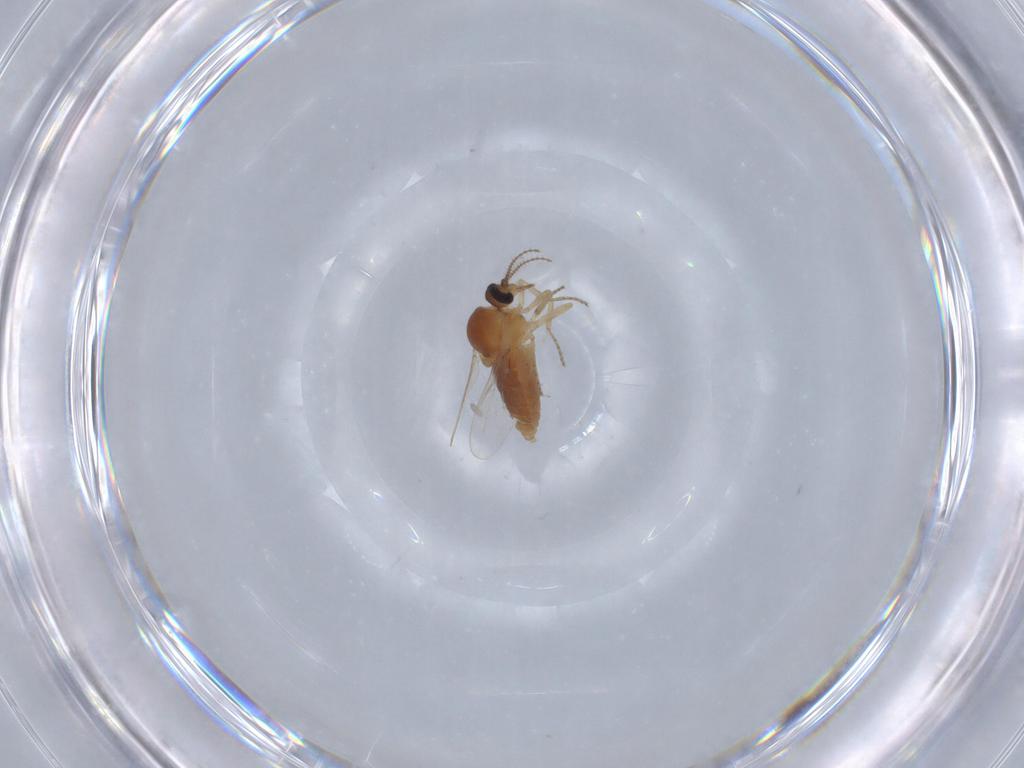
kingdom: Animalia
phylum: Arthropoda
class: Insecta
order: Diptera
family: Ceratopogonidae
